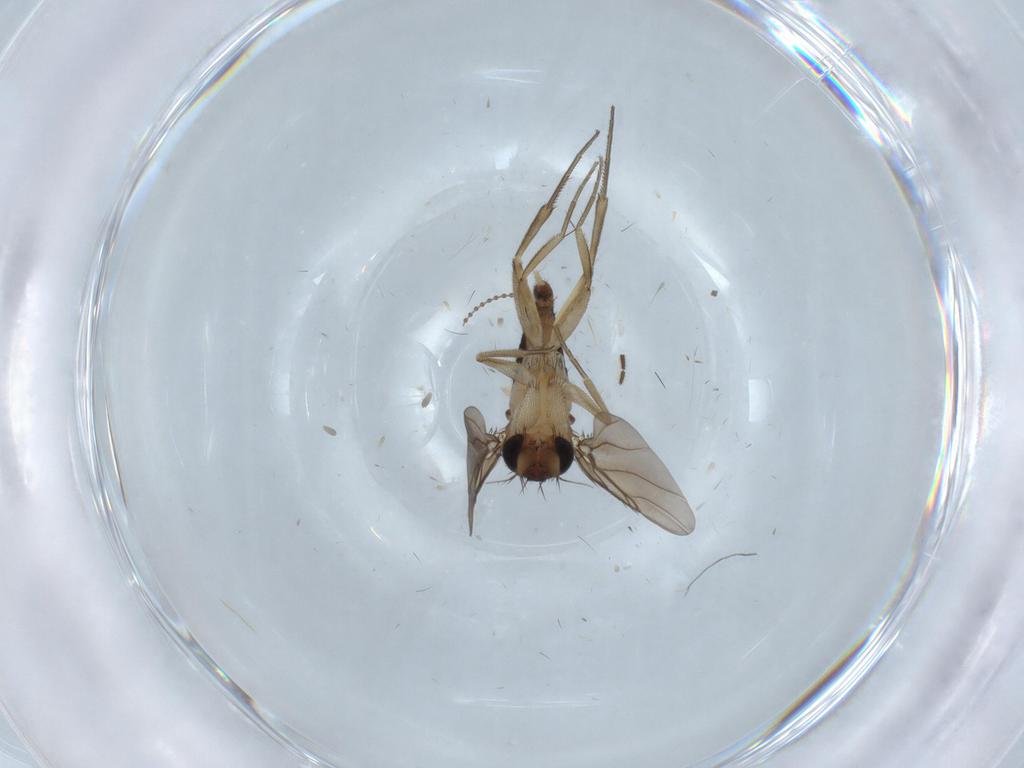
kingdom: Animalia
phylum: Arthropoda
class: Insecta
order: Diptera
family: Phoridae
